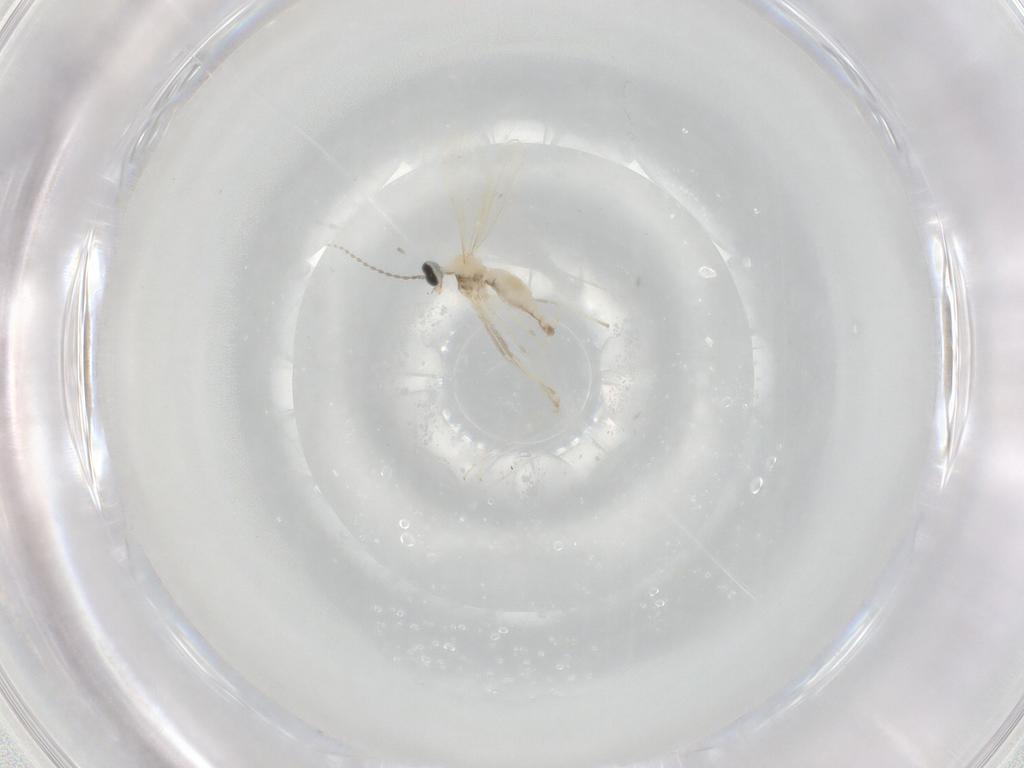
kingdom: Animalia
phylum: Arthropoda
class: Insecta
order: Diptera
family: Cecidomyiidae
